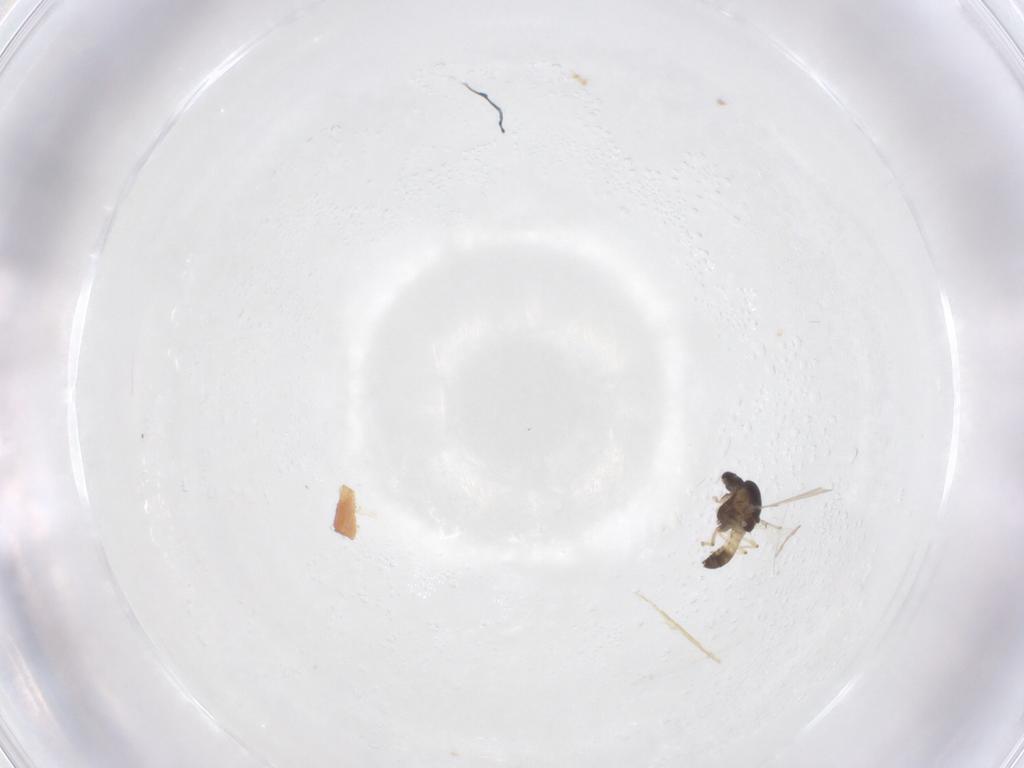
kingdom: Animalia
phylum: Arthropoda
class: Insecta
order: Diptera
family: Chironomidae
